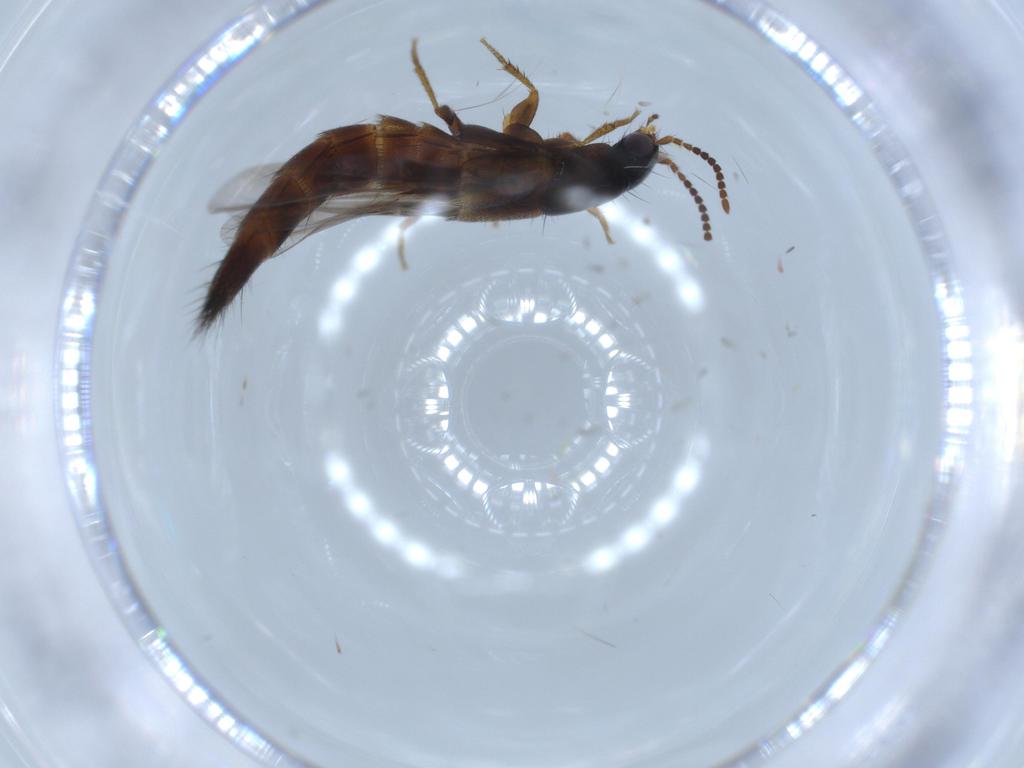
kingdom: Animalia
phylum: Arthropoda
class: Insecta
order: Coleoptera
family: Staphylinidae
